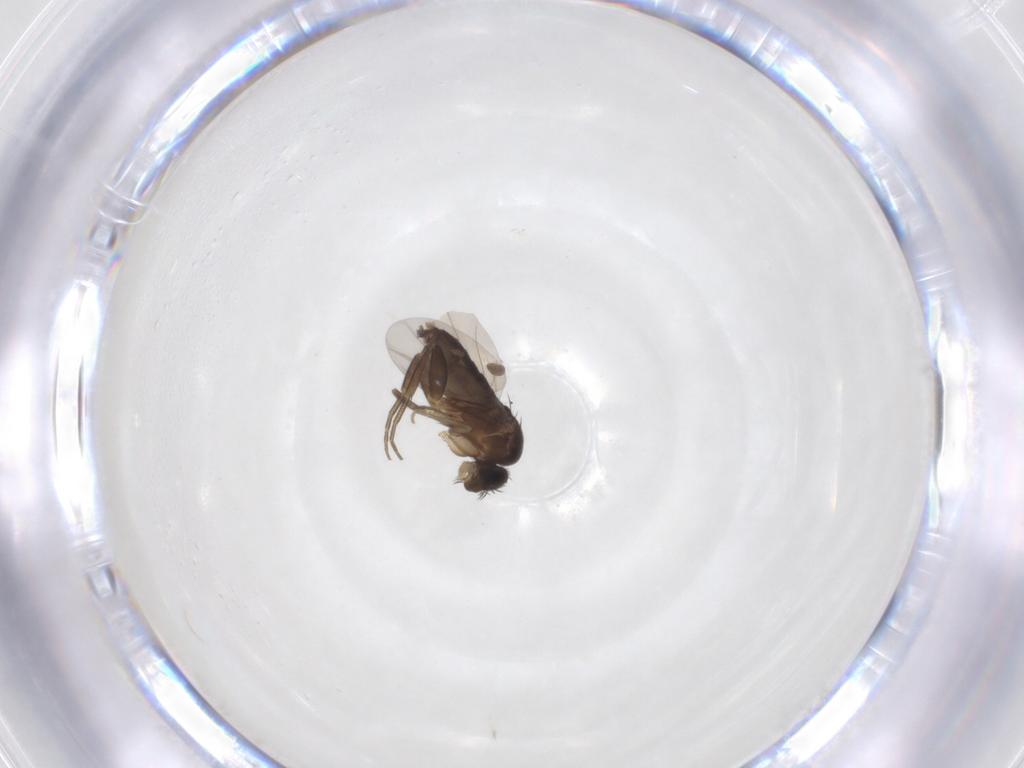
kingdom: Animalia
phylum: Arthropoda
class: Insecta
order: Diptera
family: Phoridae
